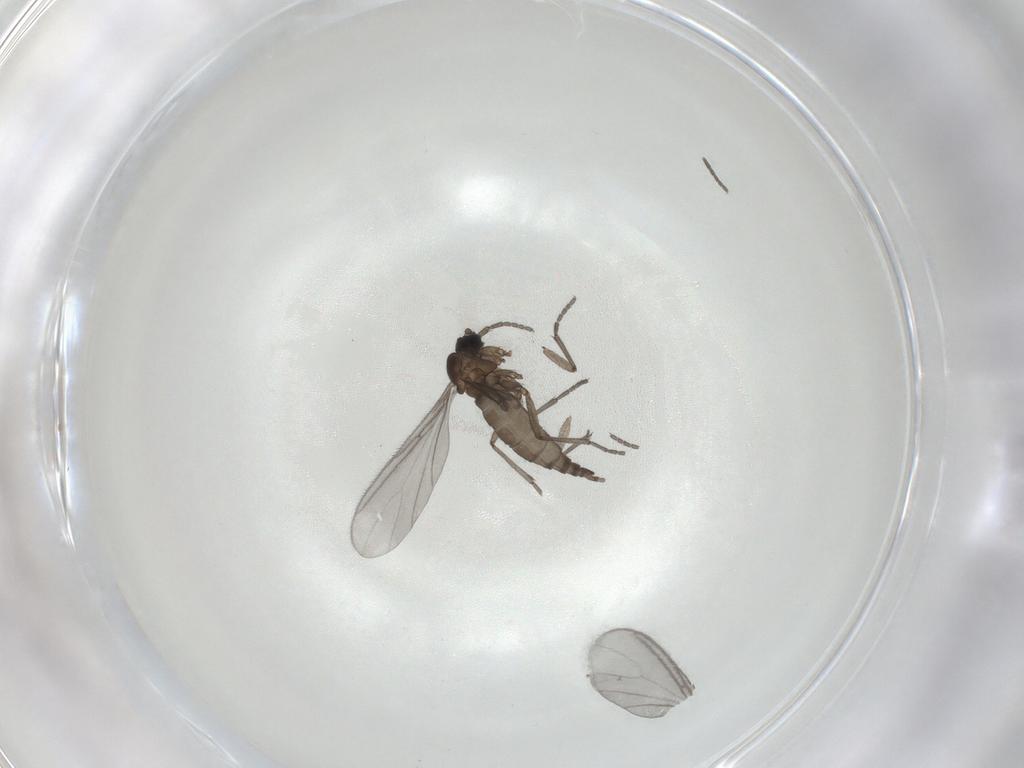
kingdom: Animalia
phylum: Arthropoda
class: Insecta
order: Diptera
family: Sciaridae
